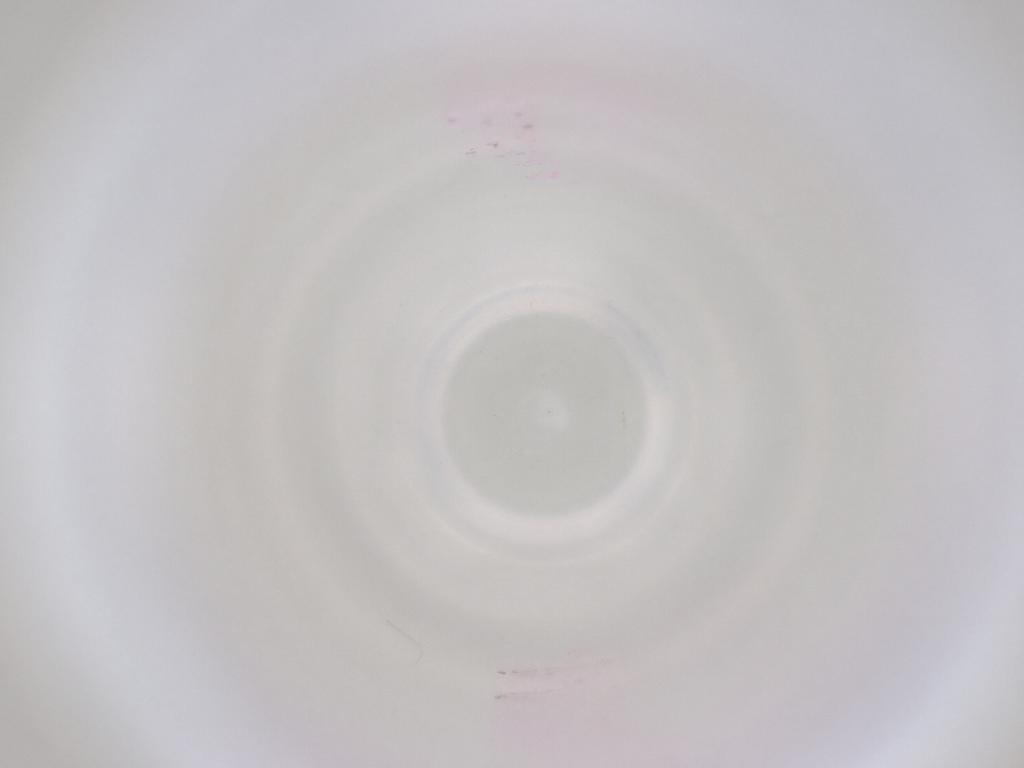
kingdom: Animalia
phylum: Arthropoda
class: Insecta
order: Diptera
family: Cecidomyiidae
